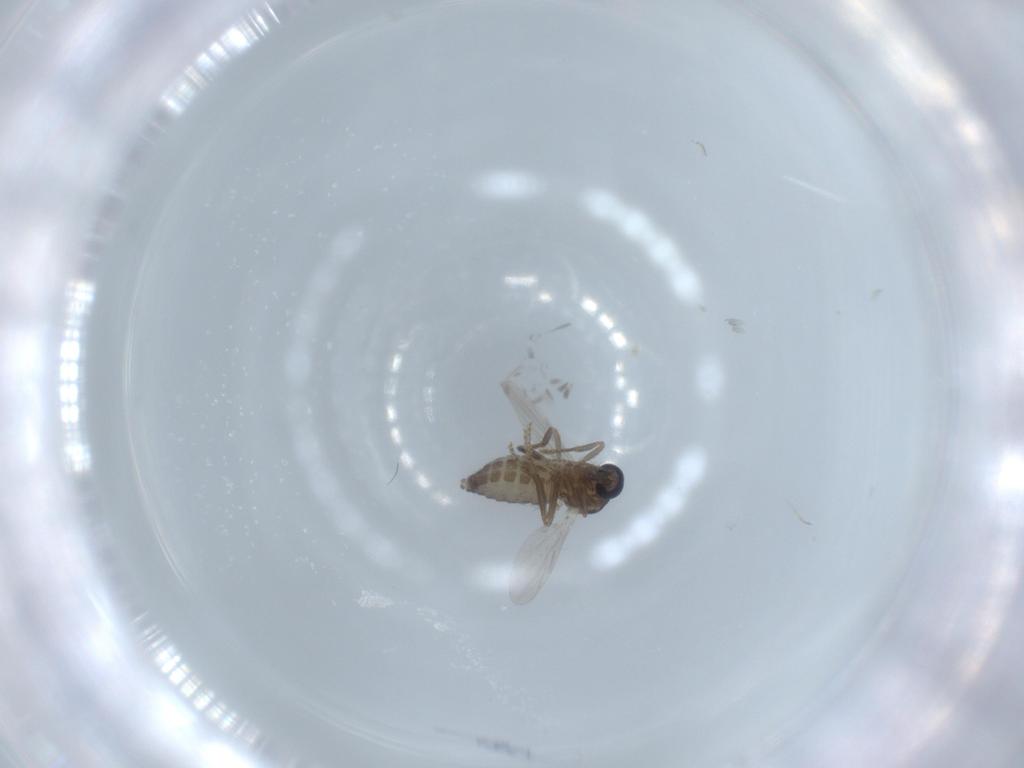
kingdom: Animalia
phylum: Arthropoda
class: Insecta
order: Diptera
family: Ceratopogonidae
